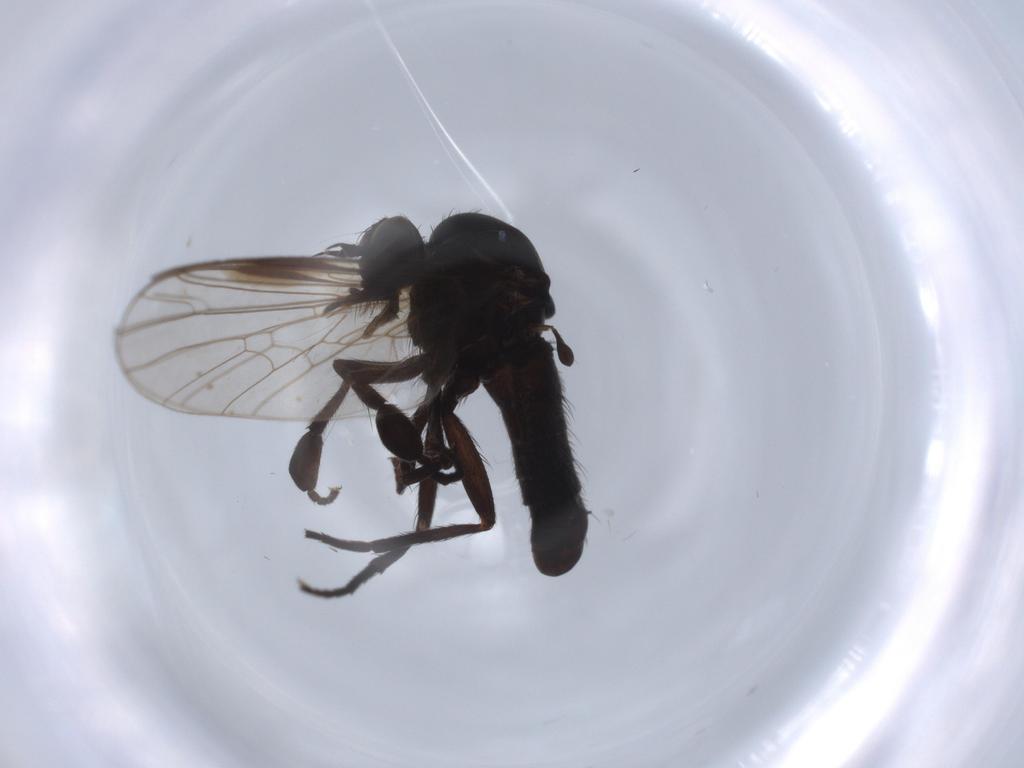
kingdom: Animalia
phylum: Arthropoda
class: Insecta
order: Diptera
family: Empididae
